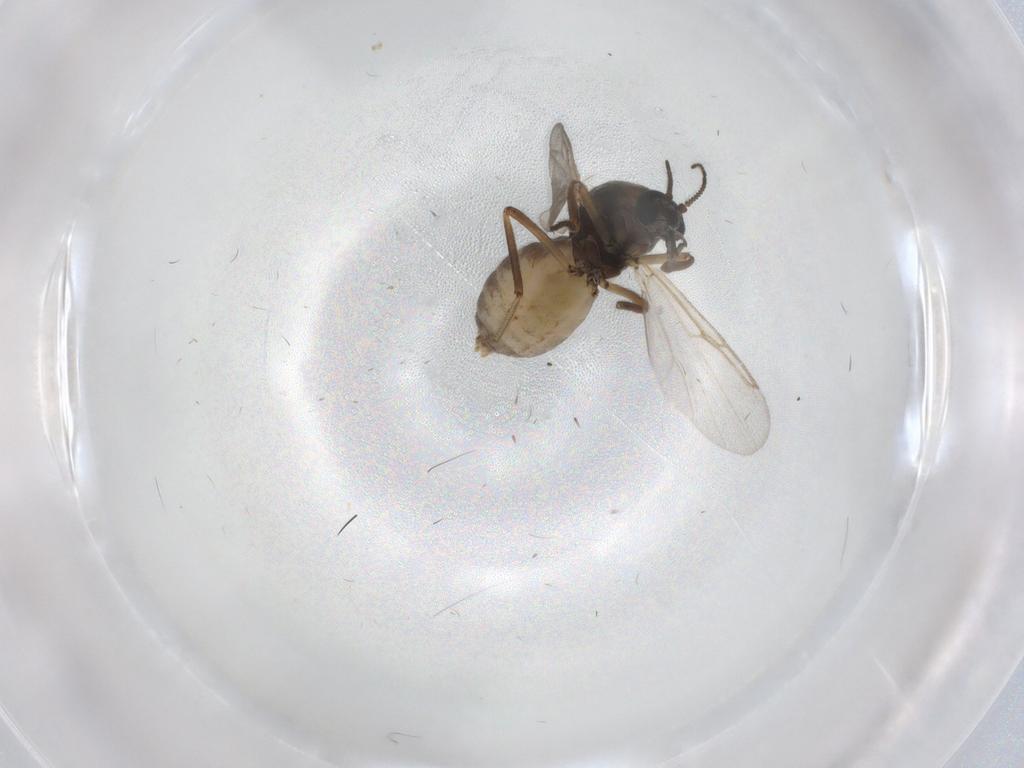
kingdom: Animalia
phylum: Arthropoda
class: Insecta
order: Diptera
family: Ceratopogonidae
